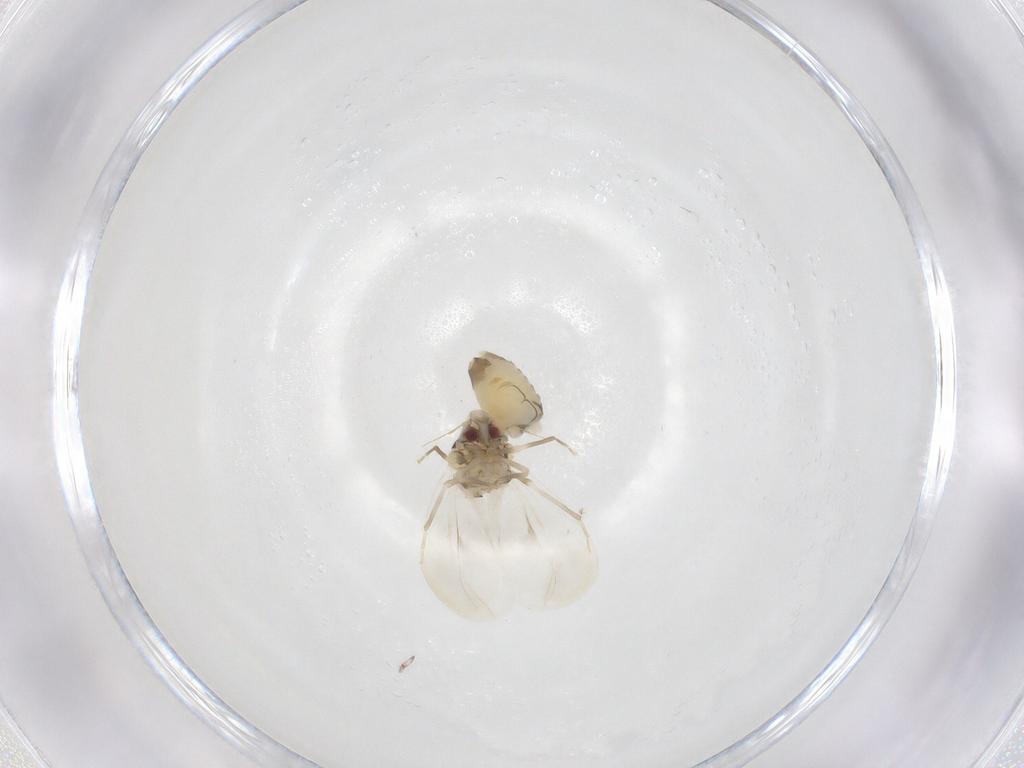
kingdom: Animalia
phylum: Arthropoda
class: Insecta
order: Hemiptera
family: Aleyrodidae
